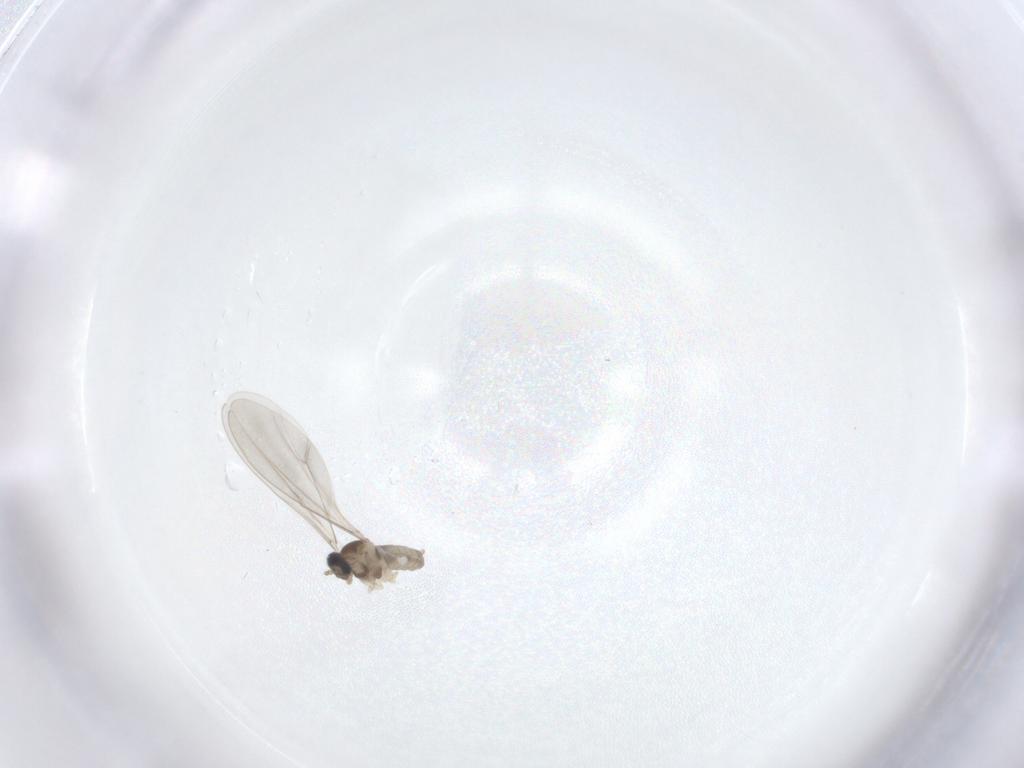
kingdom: Animalia
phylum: Arthropoda
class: Insecta
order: Diptera
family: Cecidomyiidae
